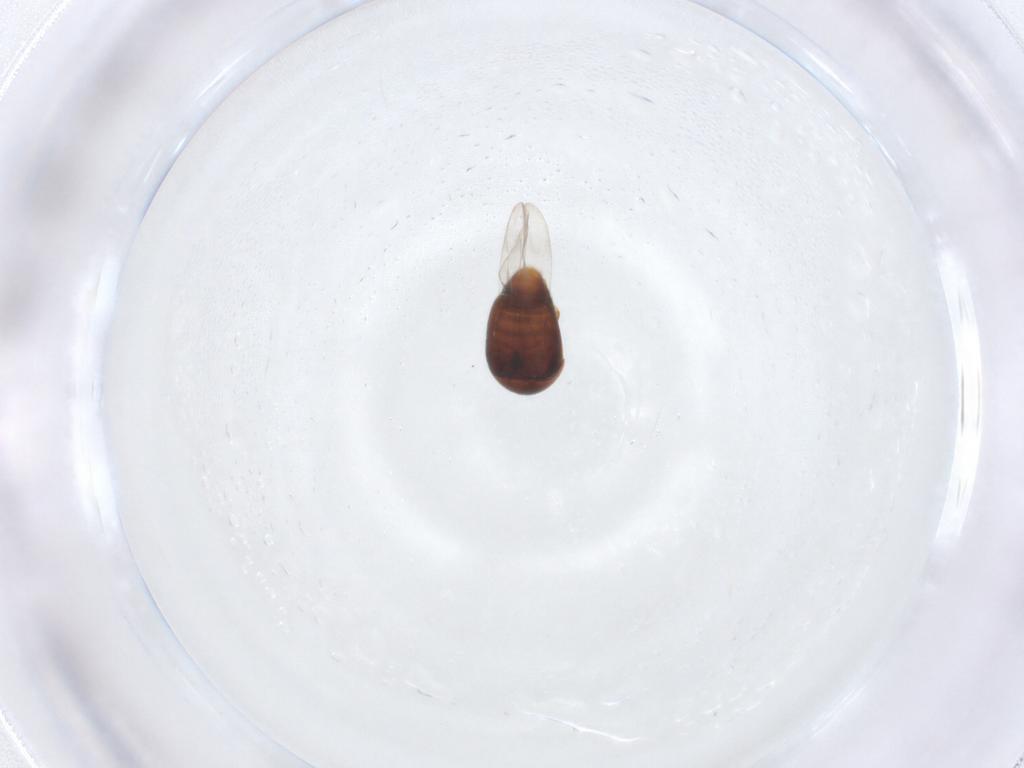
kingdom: Animalia
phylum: Arthropoda
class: Insecta
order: Coleoptera
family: Corylophidae
